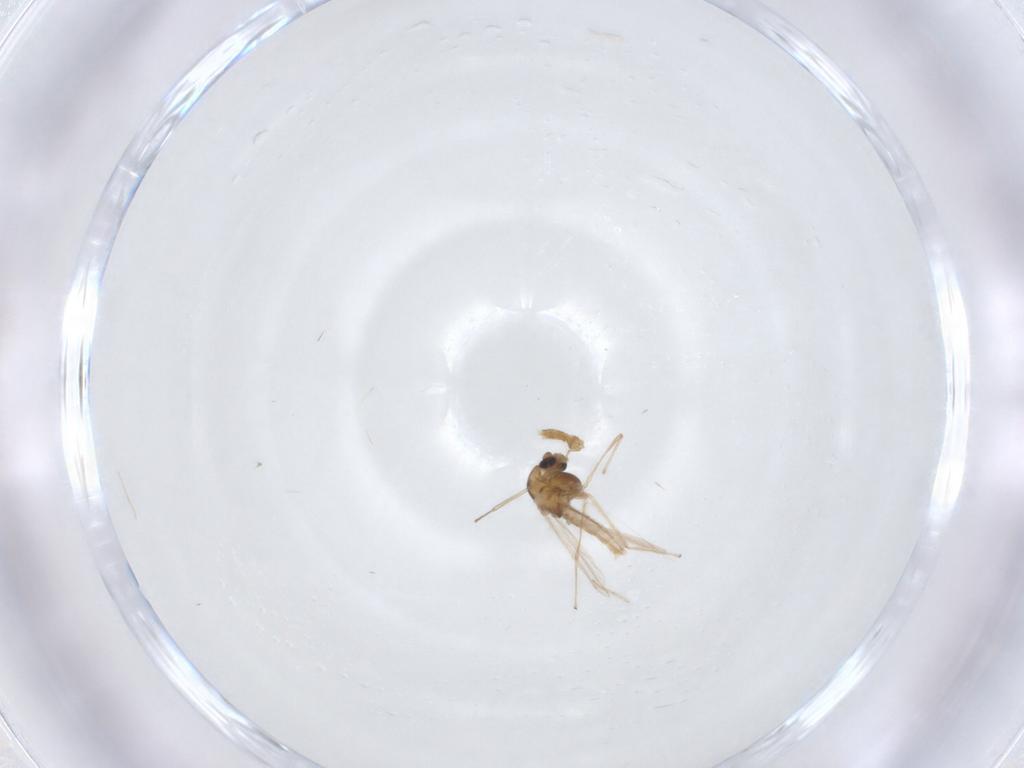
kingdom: Animalia
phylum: Arthropoda
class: Insecta
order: Diptera
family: Chironomidae
